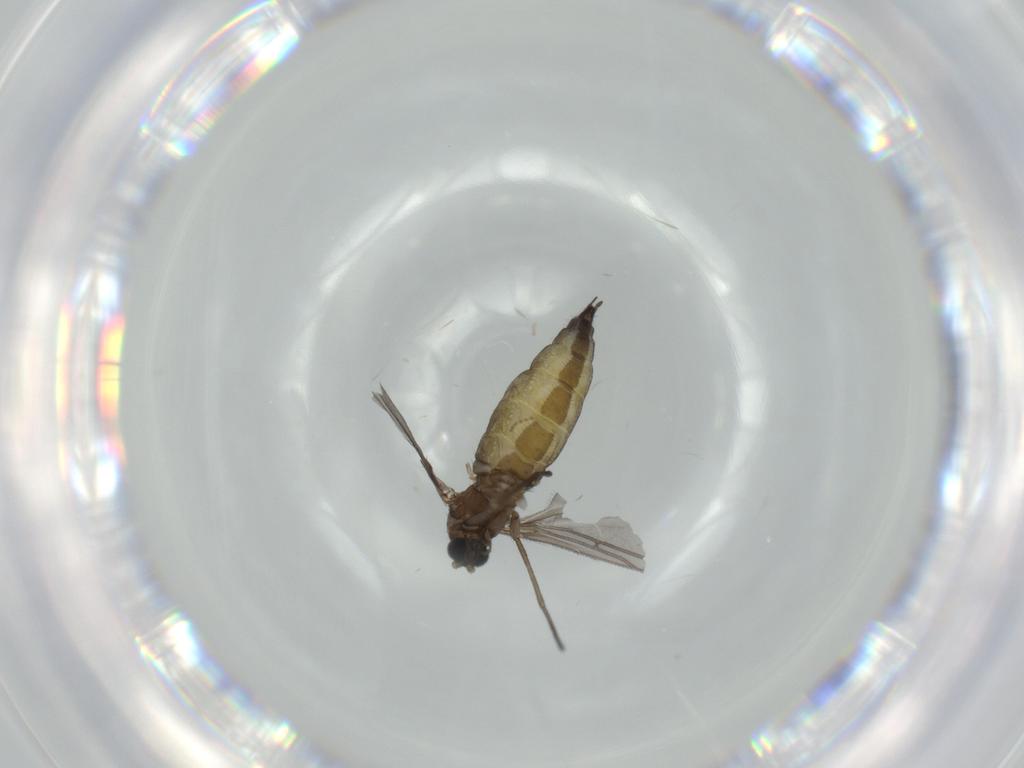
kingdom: Animalia
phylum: Arthropoda
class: Insecta
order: Diptera
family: Sciaridae
